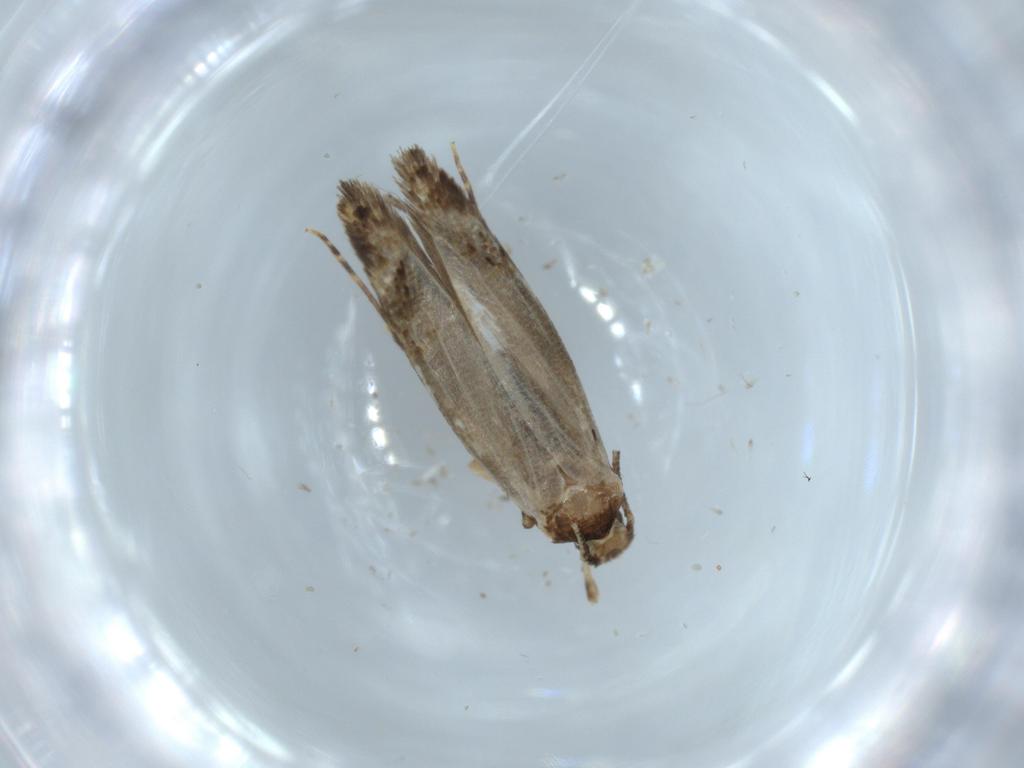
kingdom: Animalia
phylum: Arthropoda
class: Insecta
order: Lepidoptera
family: Tineidae
